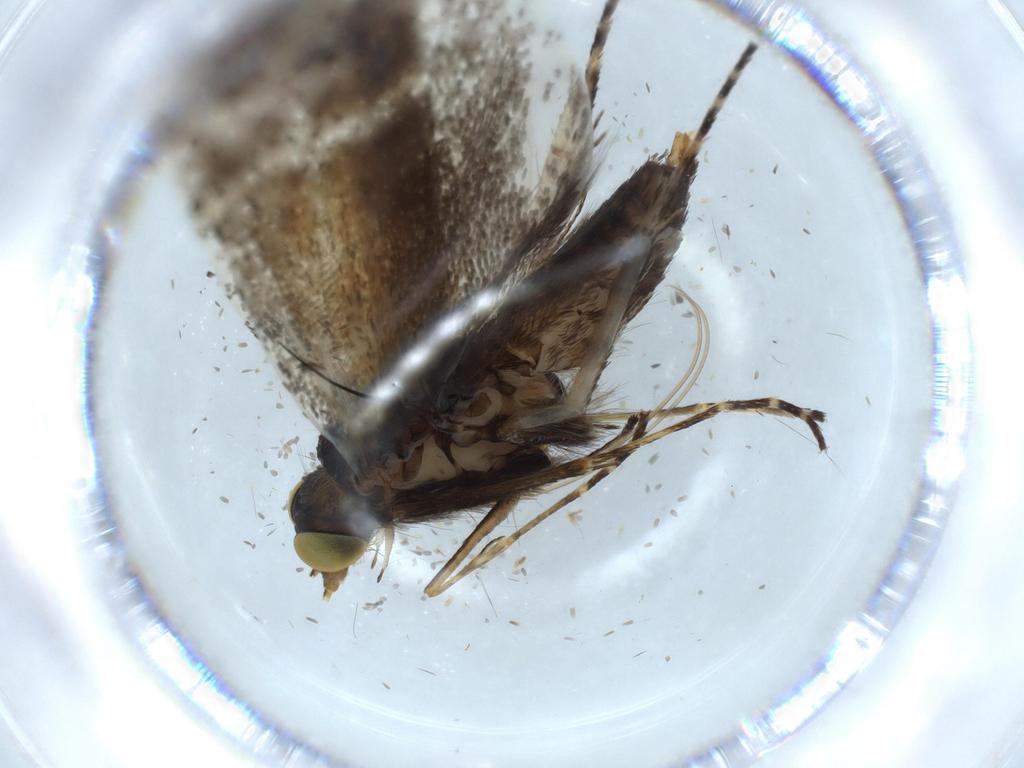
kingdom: Animalia
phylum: Arthropoda
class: Insecta
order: Lepidoptera
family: Adelidae
